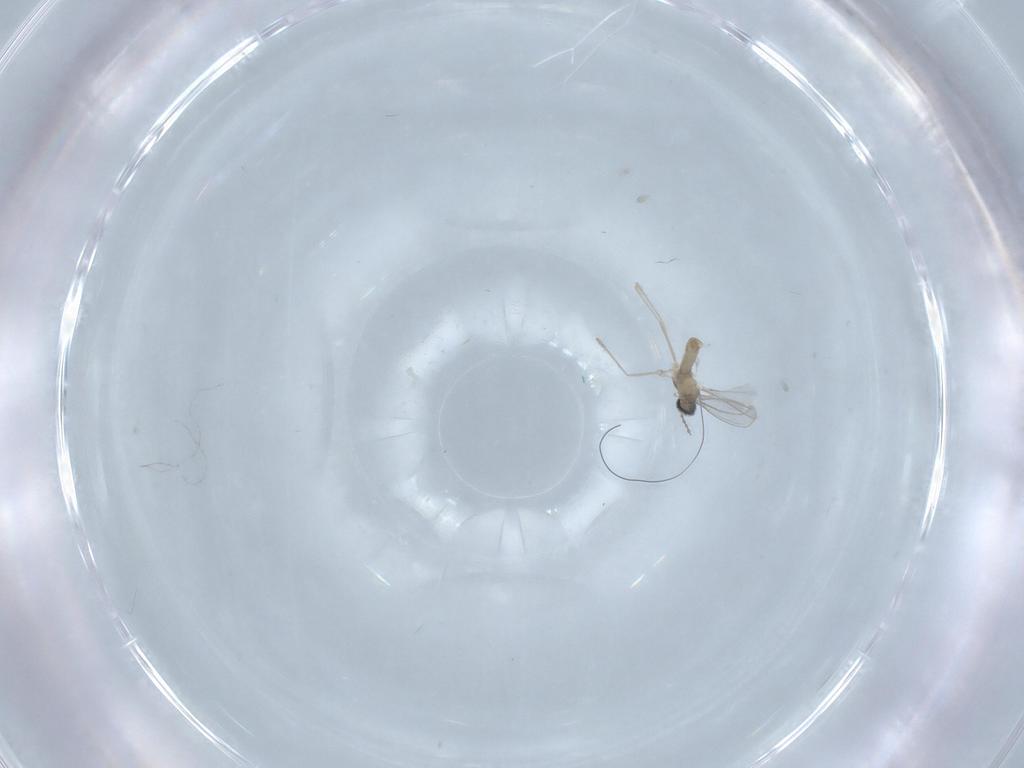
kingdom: Animalia
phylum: Arthropoda
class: Insecta
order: Diptera
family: Cecidomyiidae
